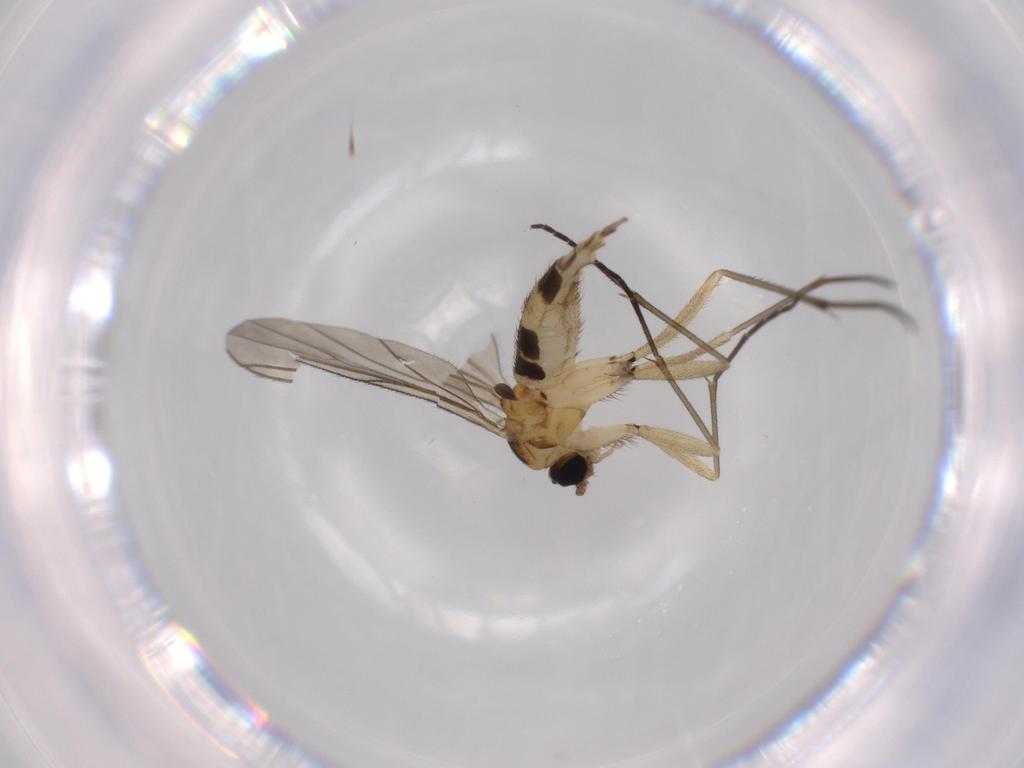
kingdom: Animalia
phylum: Arthropoda
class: Insecta
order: Diptera
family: Sciaridae
